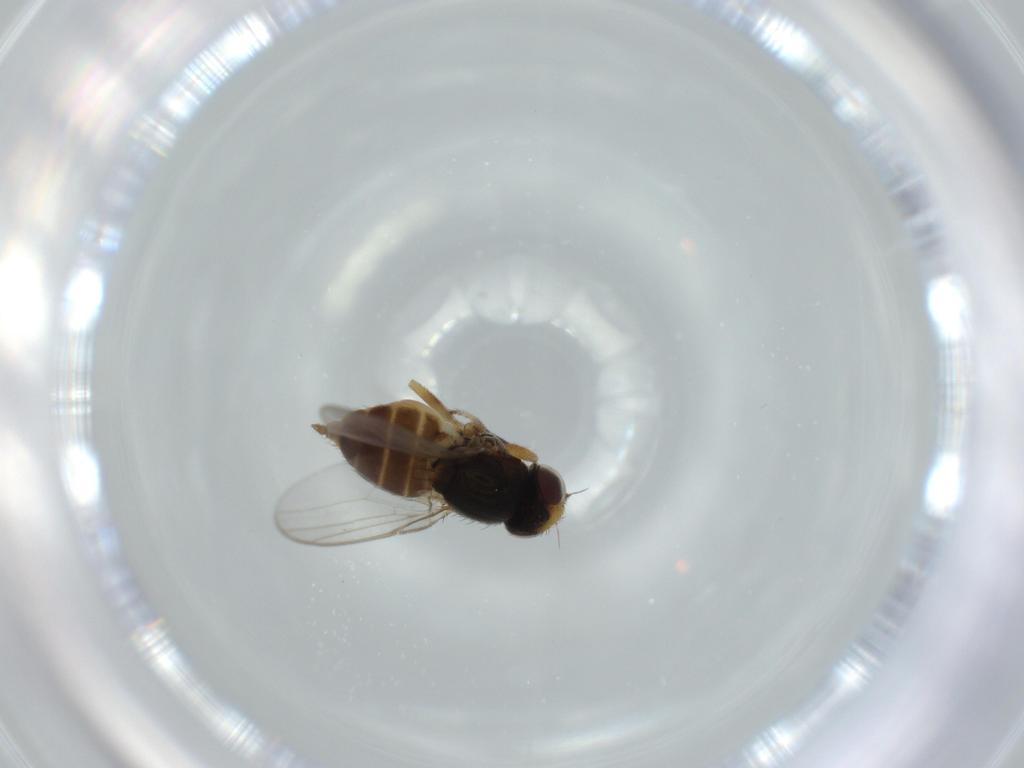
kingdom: Animalia
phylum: Arthropoda
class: Insecta
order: Diptera
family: Chloropidae
